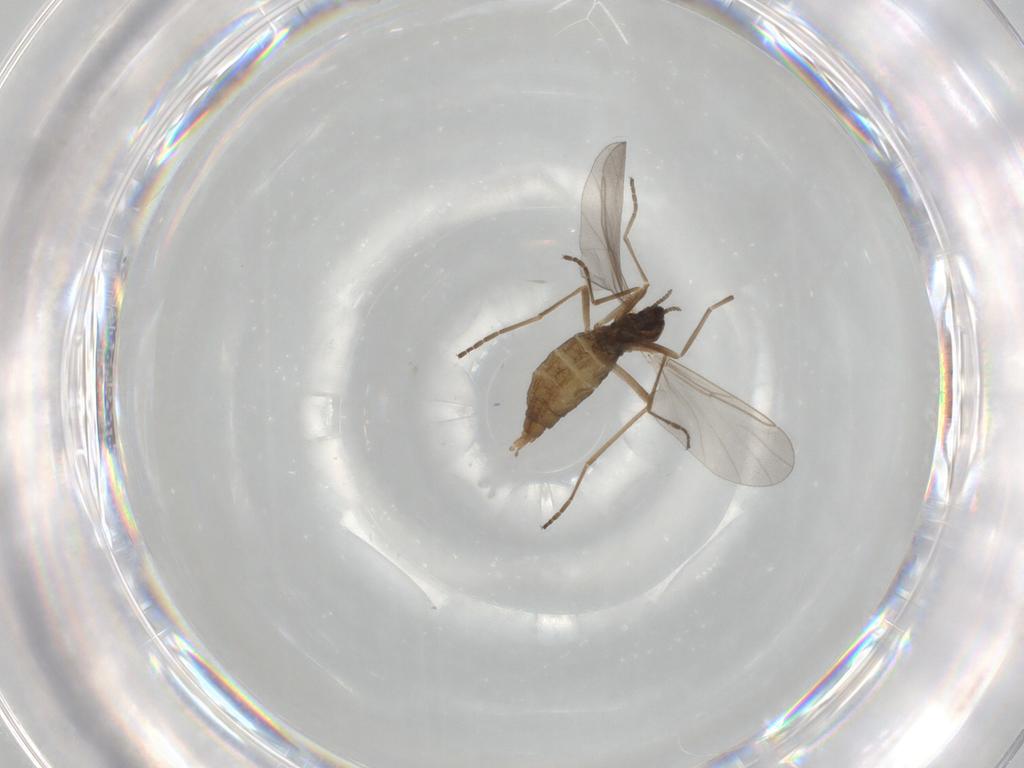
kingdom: Animalia
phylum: Arthropoda
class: Insecta
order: Diptera
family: Cecidomyiidae
